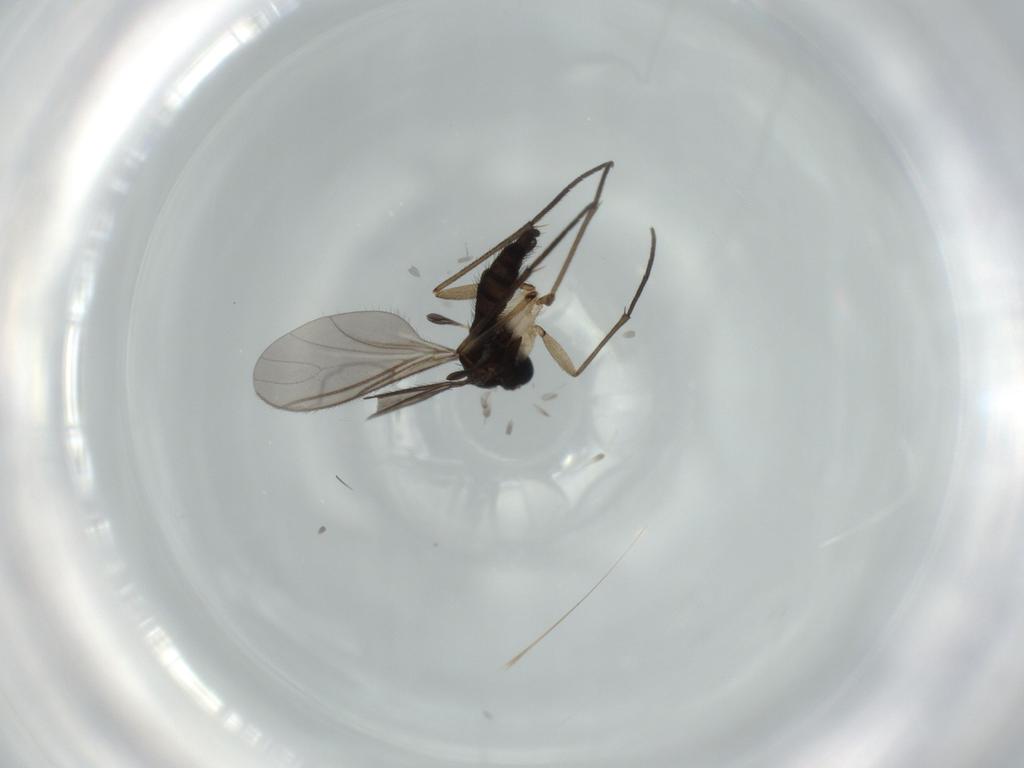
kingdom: Animalia
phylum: Arthropoda
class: Insecta
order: Diptera
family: Sciaridae
